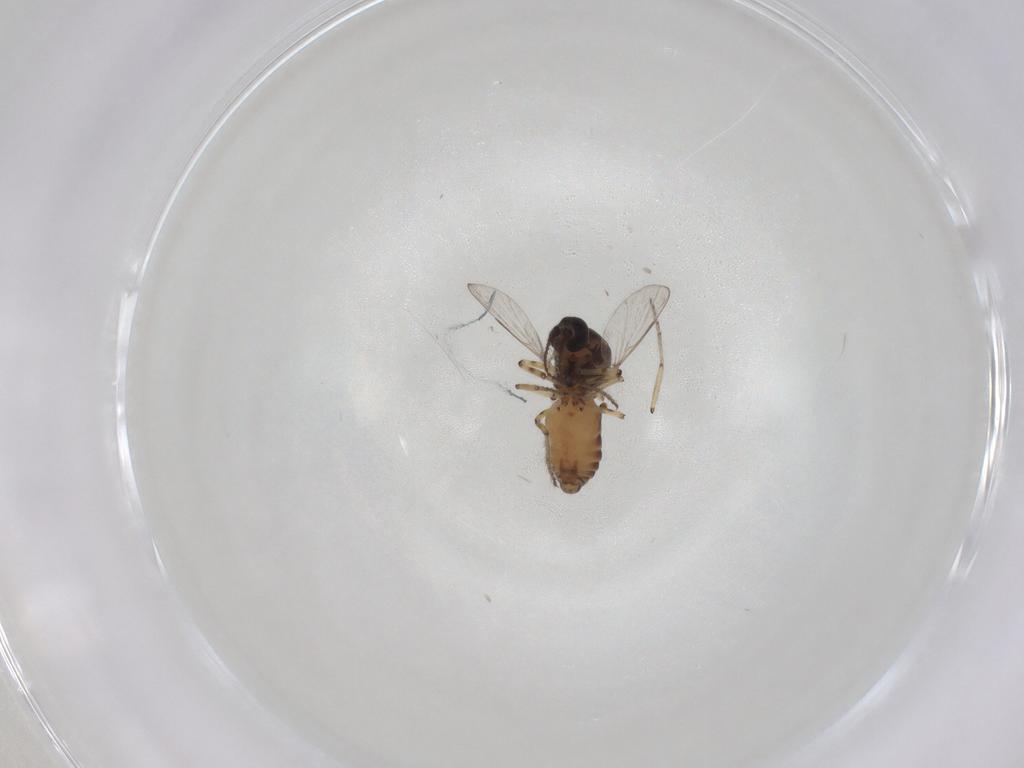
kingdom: Animalia
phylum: Arthropoda
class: Insecta
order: Diptera
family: Ceratopogonidae
